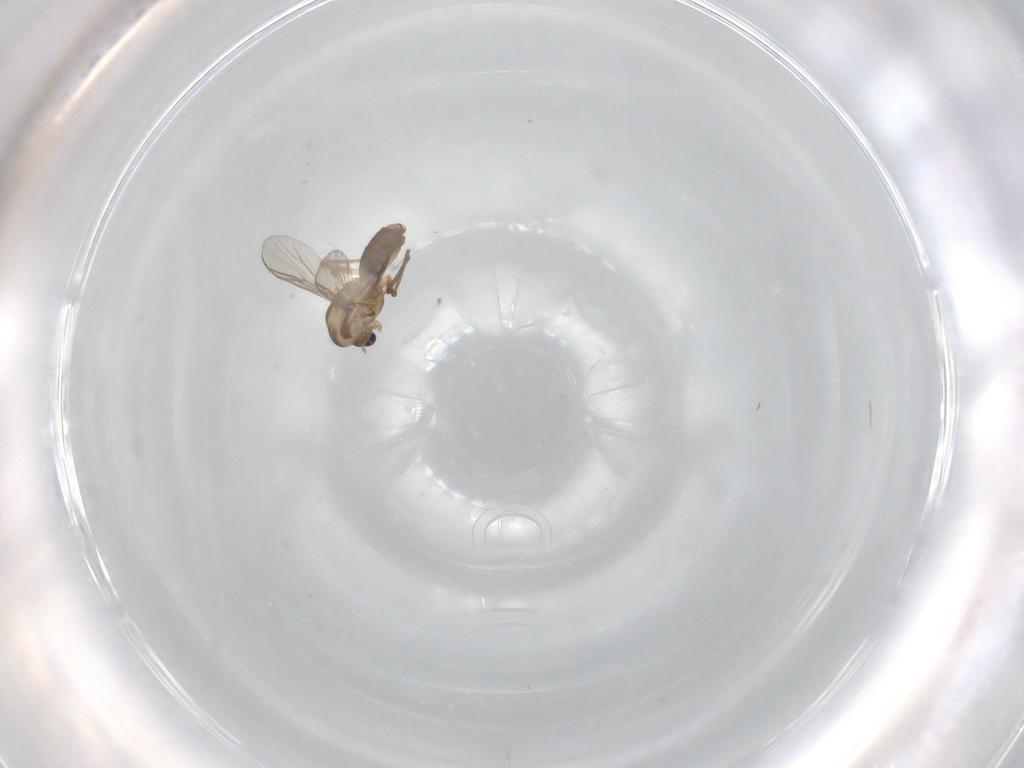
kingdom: Animalia
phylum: Arthropoda
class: Insecta
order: Diptera
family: Chironomidae
